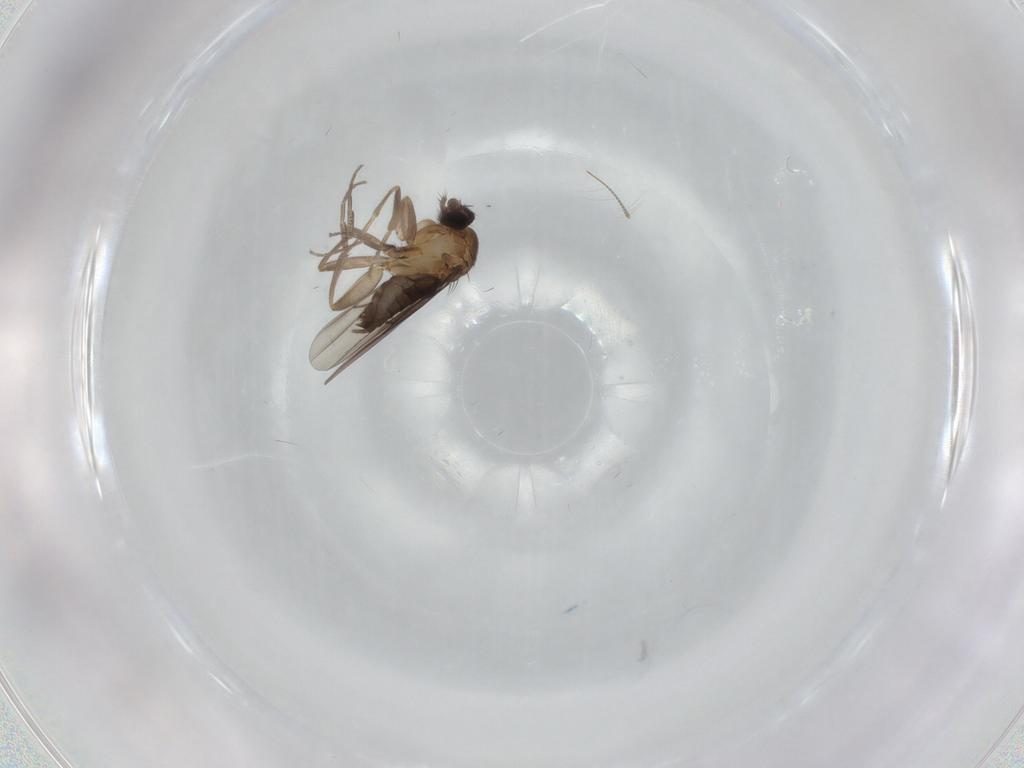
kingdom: Animalia
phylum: Arthropoda
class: Insecta
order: Diptera
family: Phoridae
